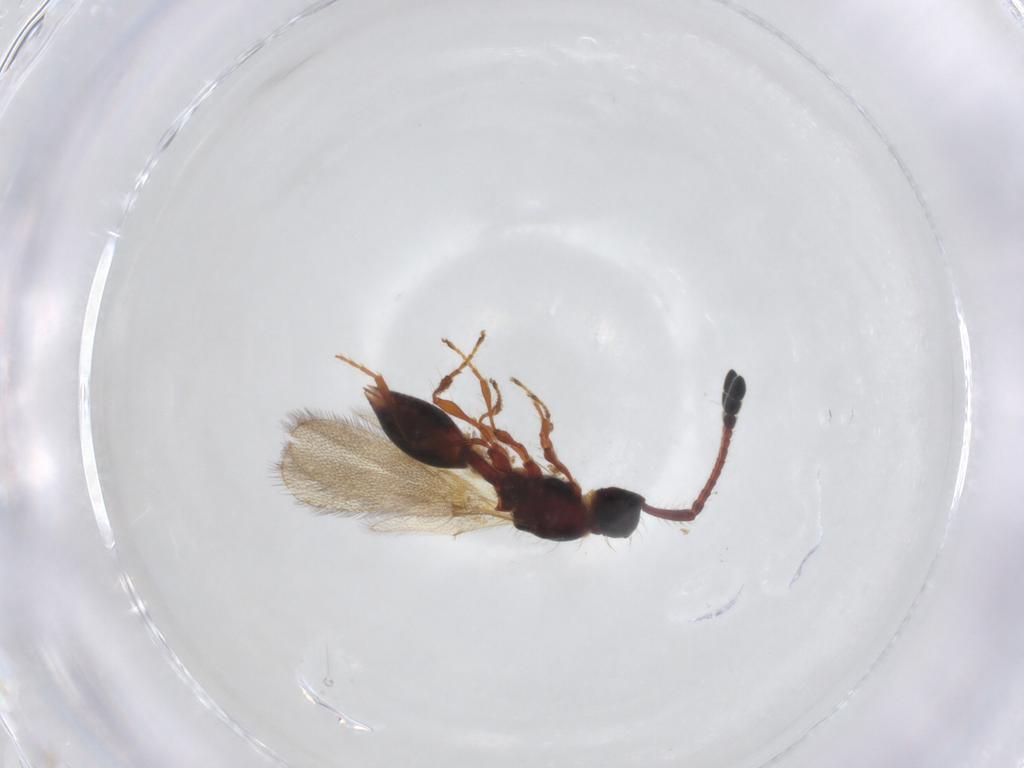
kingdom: Animalia
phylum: Arthropoda
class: Insecta
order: Hymenoptera
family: Diapriidae
